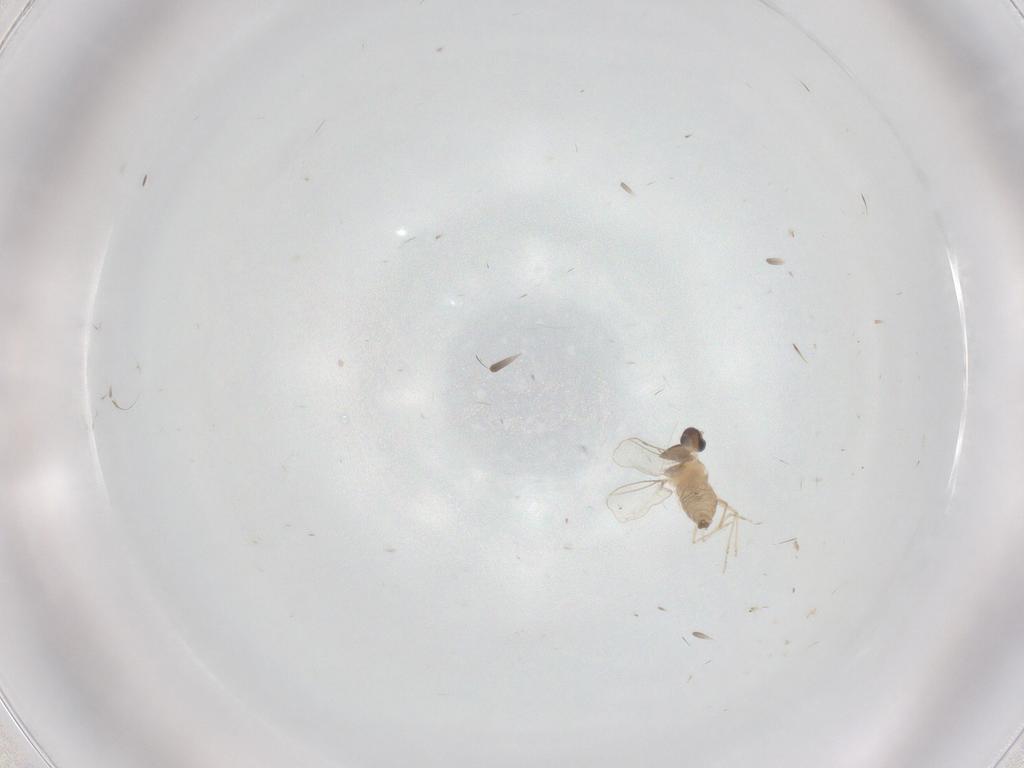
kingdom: Animalia
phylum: Arthropoda
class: Insecta
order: Diptera
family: Cecidomyiidae
